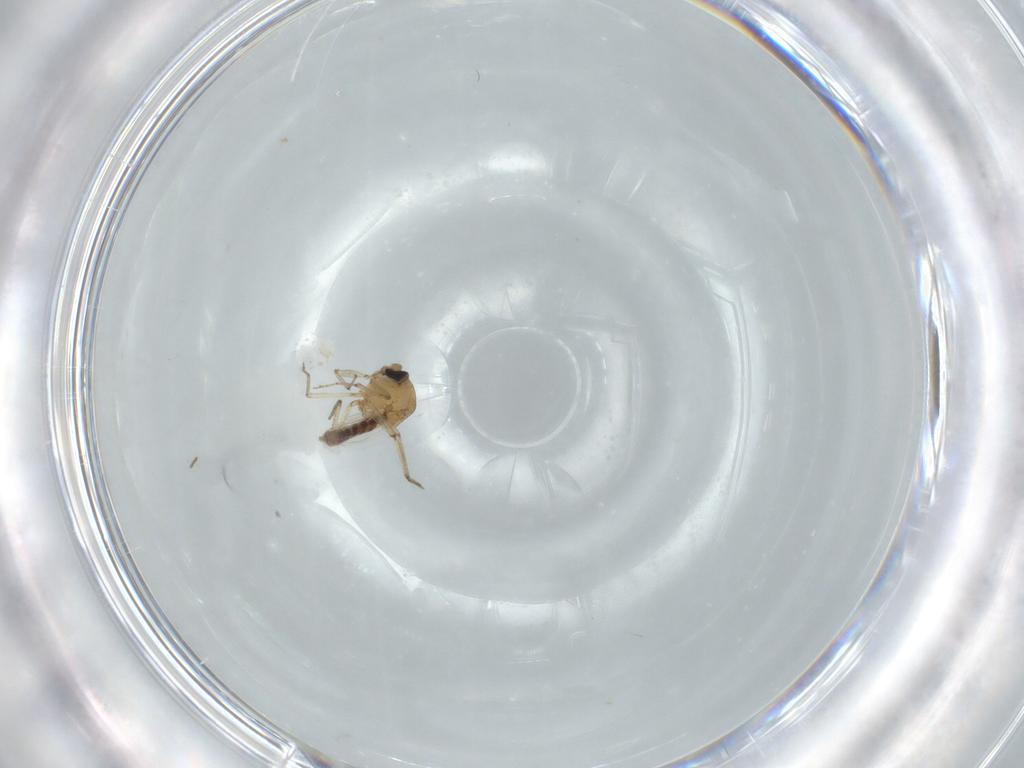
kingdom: Animalia
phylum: Arthropoda
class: Insecta
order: Diptera
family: Ceratopogonidae
